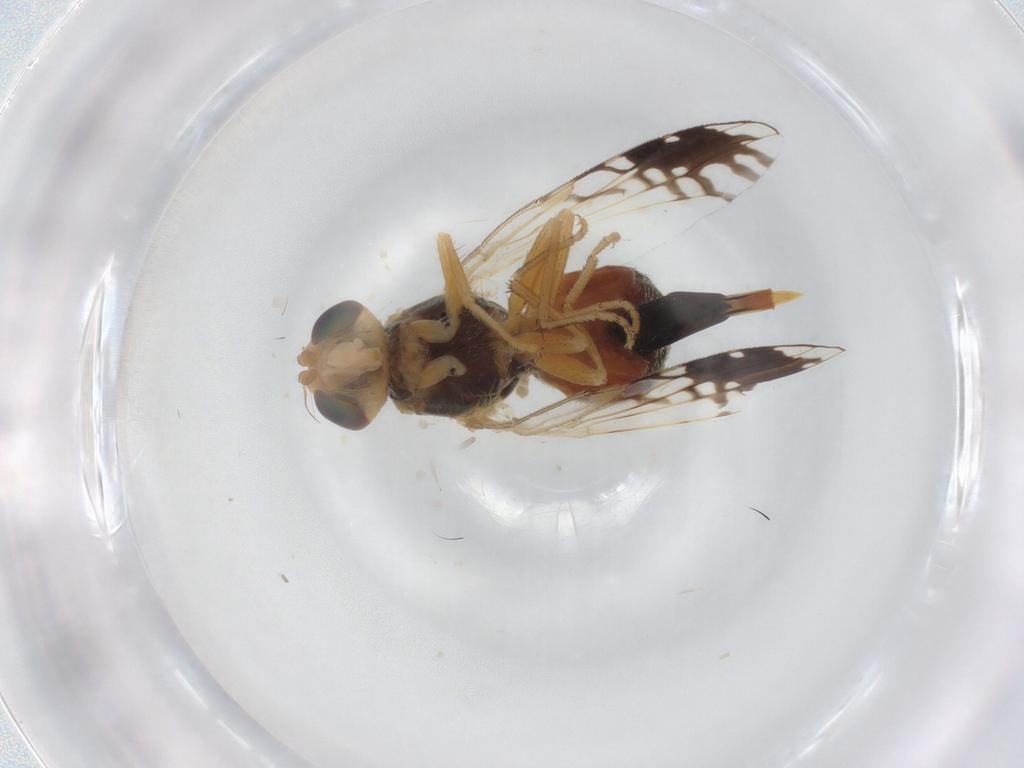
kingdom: Animalia
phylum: Arthropoda
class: Insecta
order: Diptera
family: Muscidae
